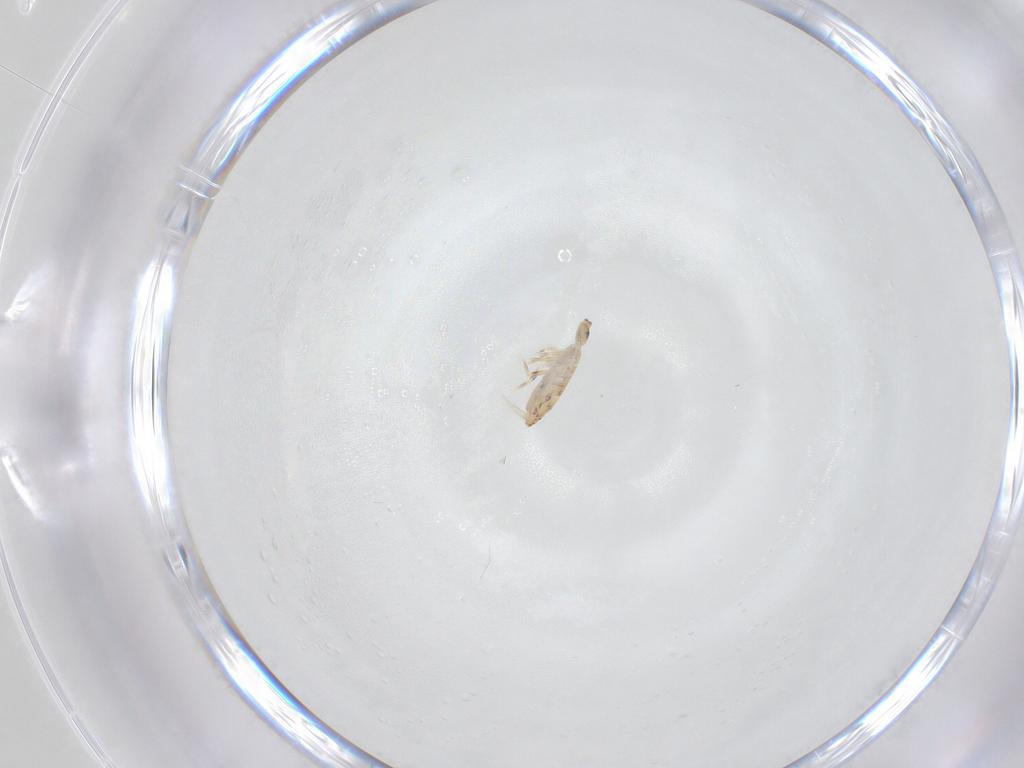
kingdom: Animalia
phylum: Arthropoda
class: Collembola
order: Entomobryomorpha
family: Entomobryidae
